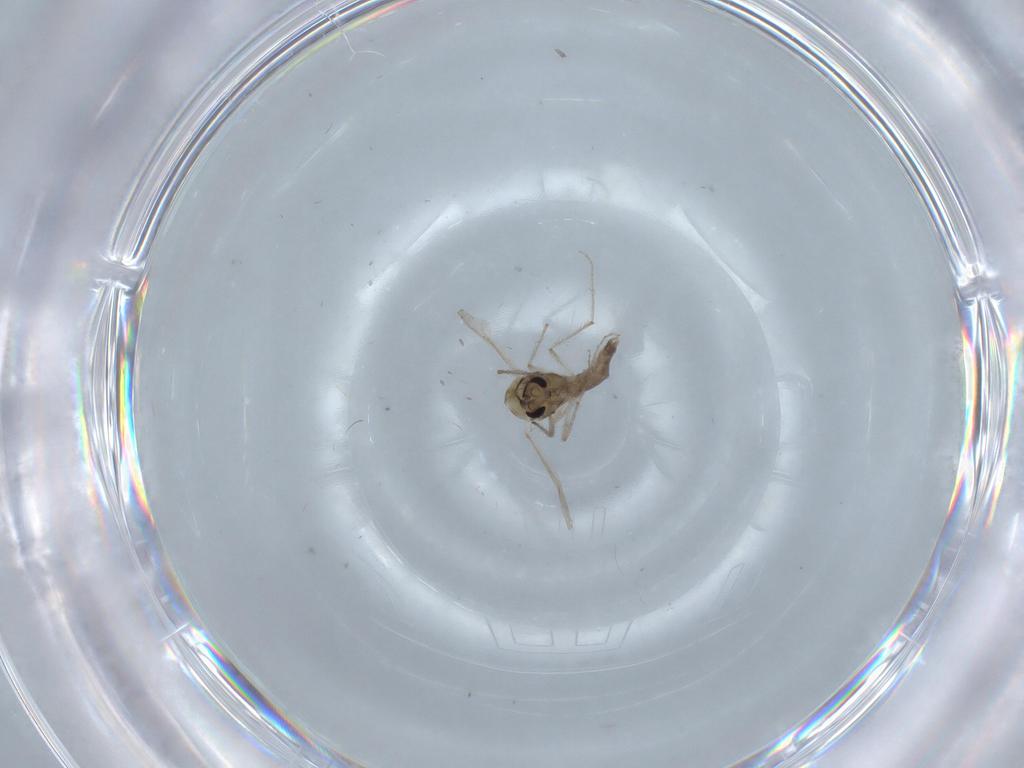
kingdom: Animalia
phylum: Arthropoda
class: Insecta
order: Diptera
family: Chironomidae
